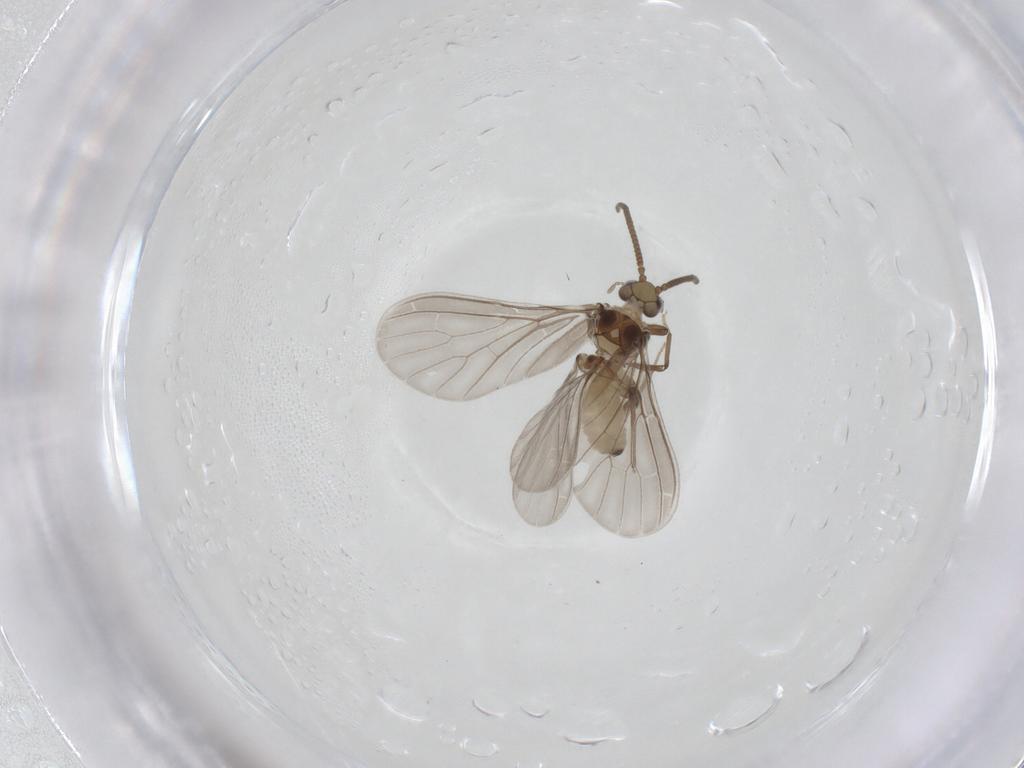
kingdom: Animalia
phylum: Arthropoda
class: Insecta
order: Neuroptera
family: Coniopterygidae
